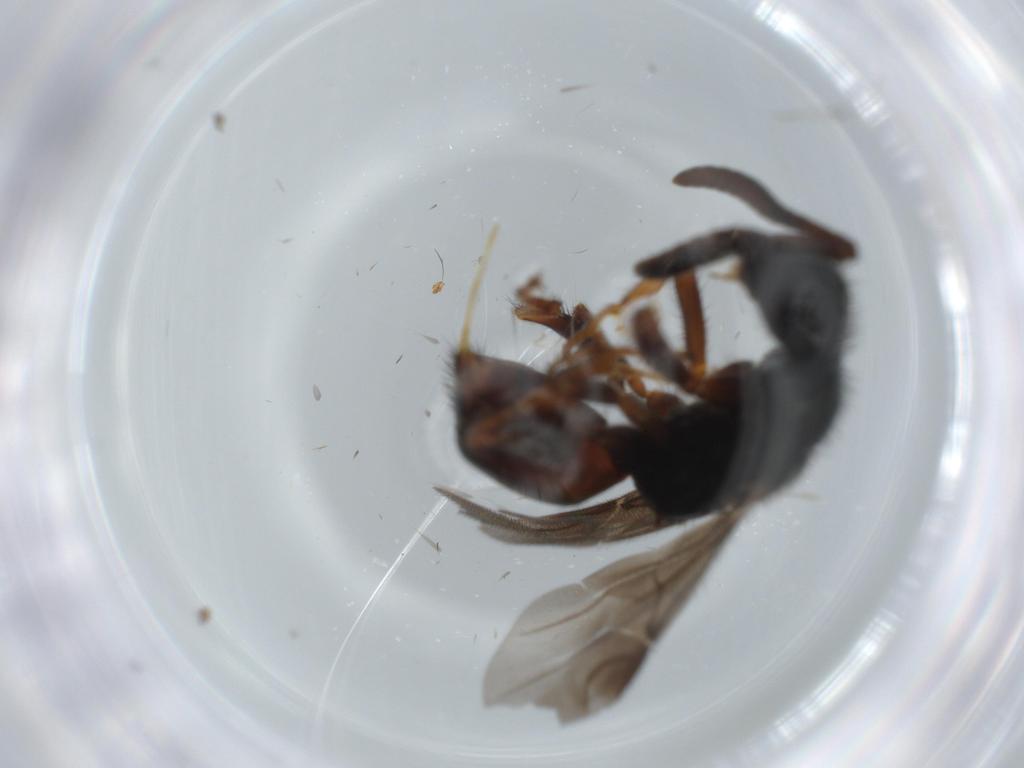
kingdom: Animalia
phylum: Arthropoda
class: Insecta
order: Hymenoptera
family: Chrysididae
